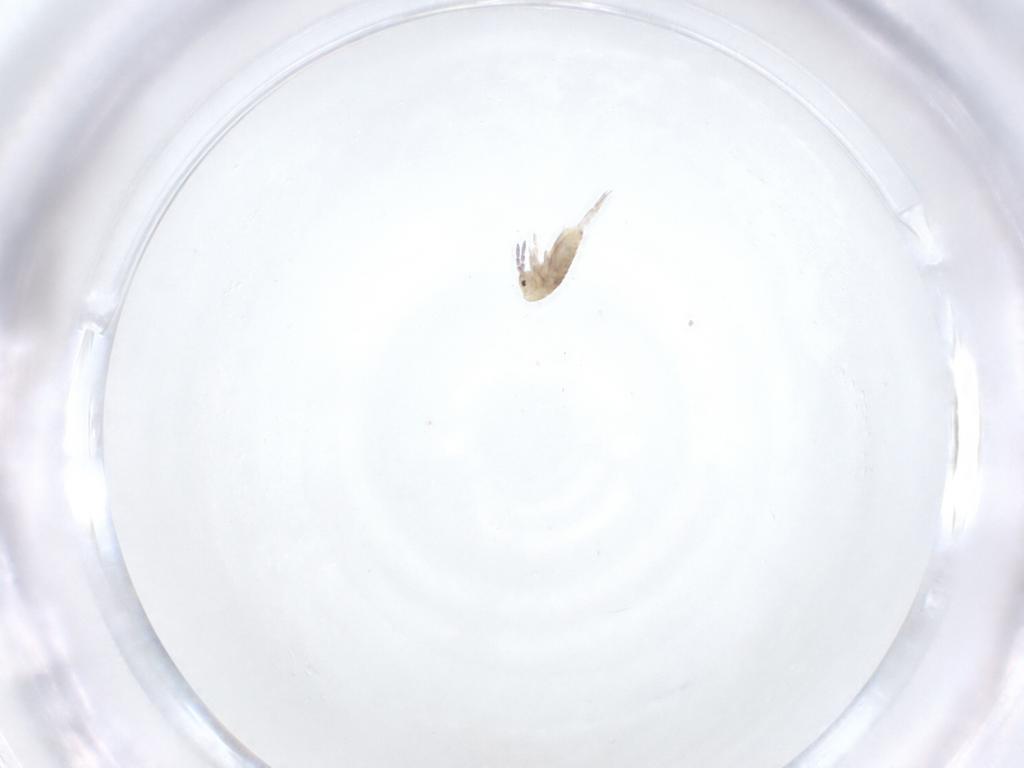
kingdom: Animalia
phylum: Arthropoda
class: Collembola
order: Entomobryomorpha
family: Entomobryidae
